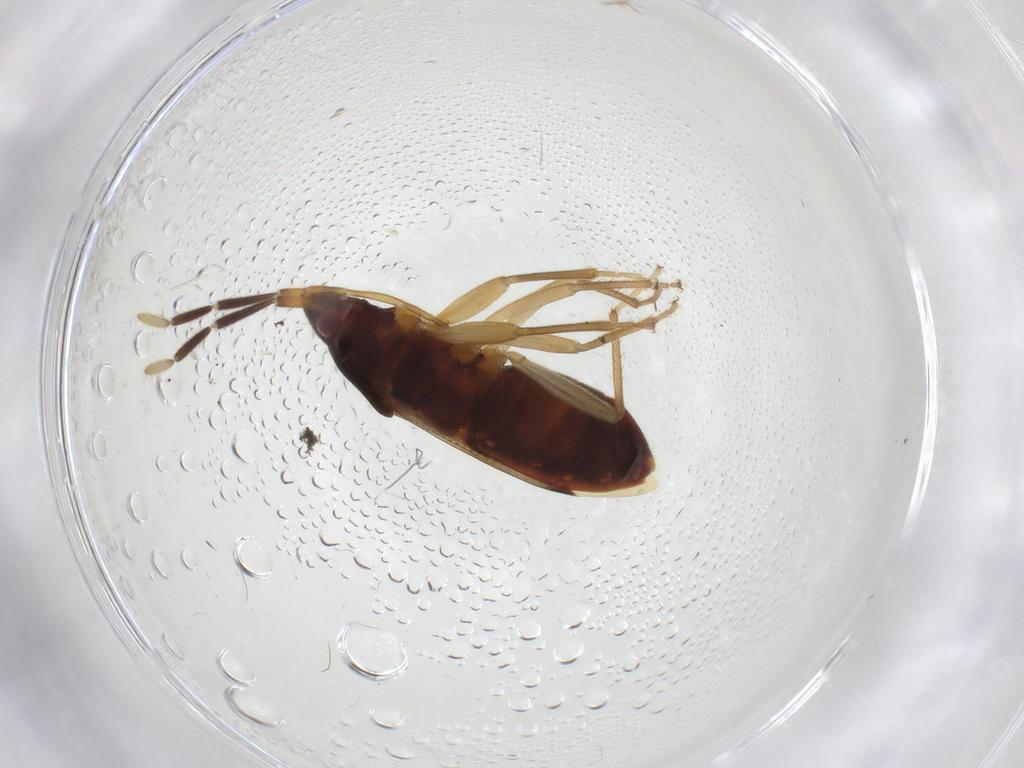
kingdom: Animalia
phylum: Arthropoda
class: Insecta
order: Hemiptera
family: Rhyparochromidae
